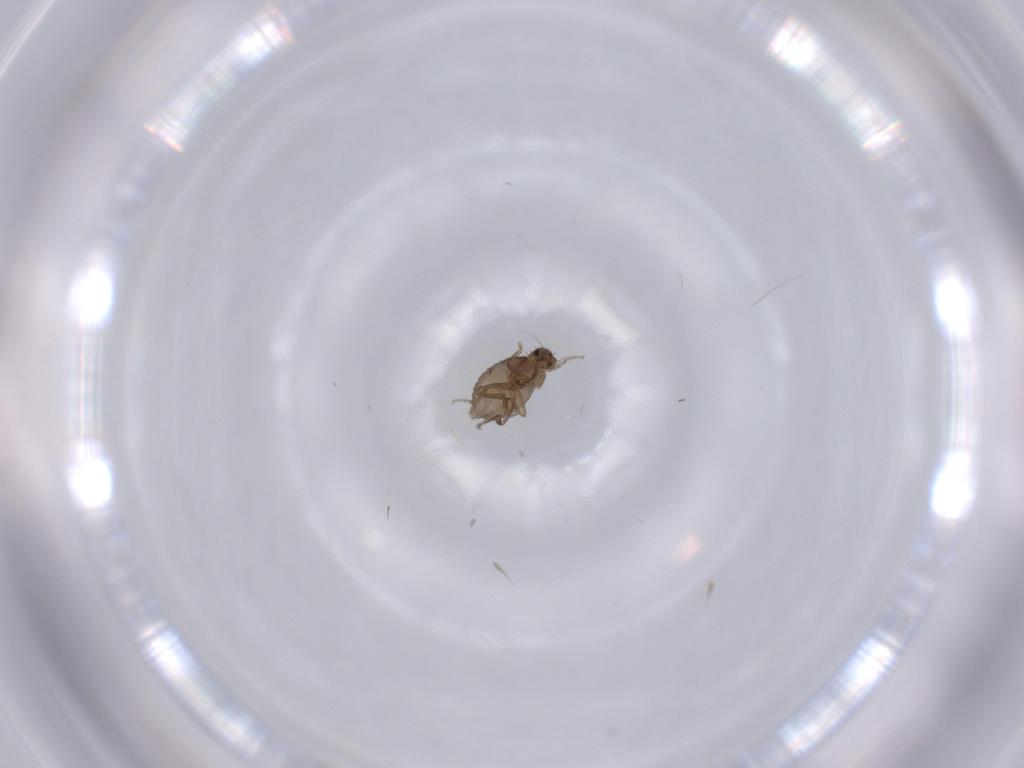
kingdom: Animalia
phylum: Arthropoda
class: Insecta
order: Diptera
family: Phoridae
